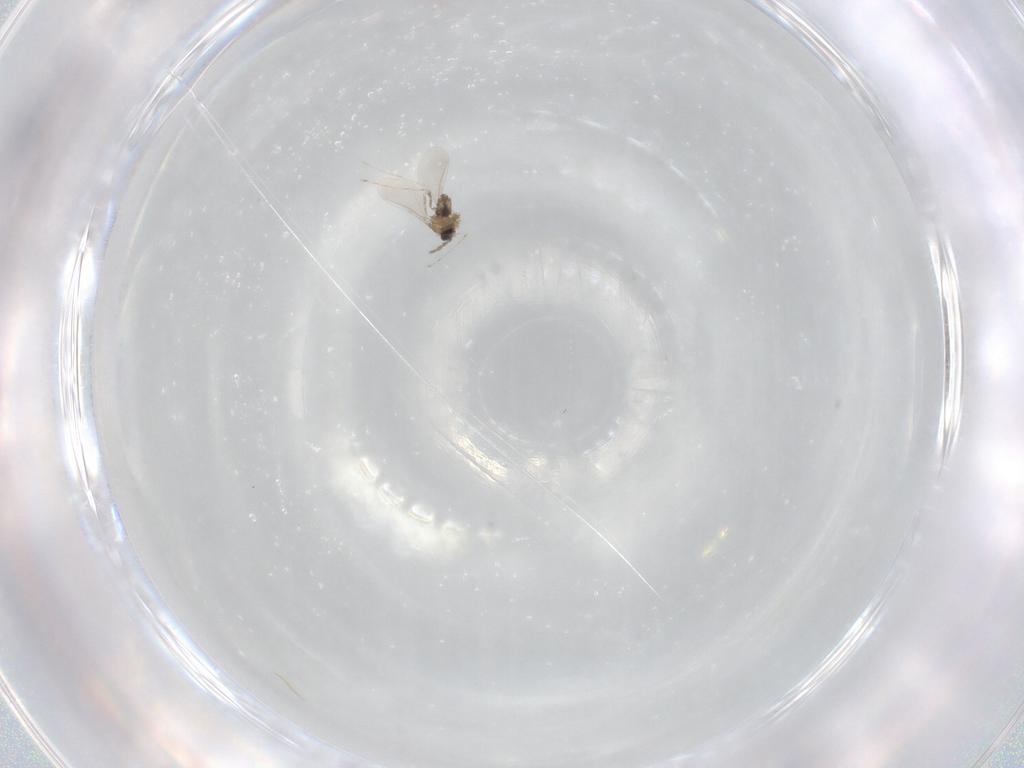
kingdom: Animalia
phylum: Arthropoda
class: Insecta
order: Diptera
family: Cecidomyiidae
